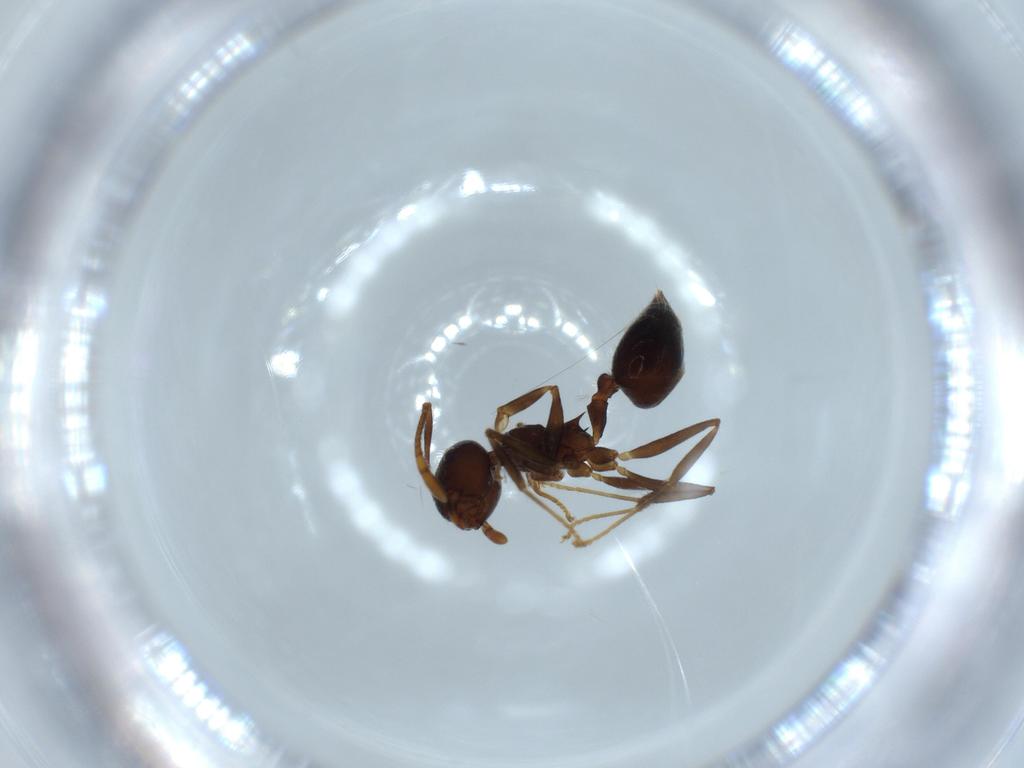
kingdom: Animalia
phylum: Arthropoda
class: Insecta
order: Hymenoptera
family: Formicidae
